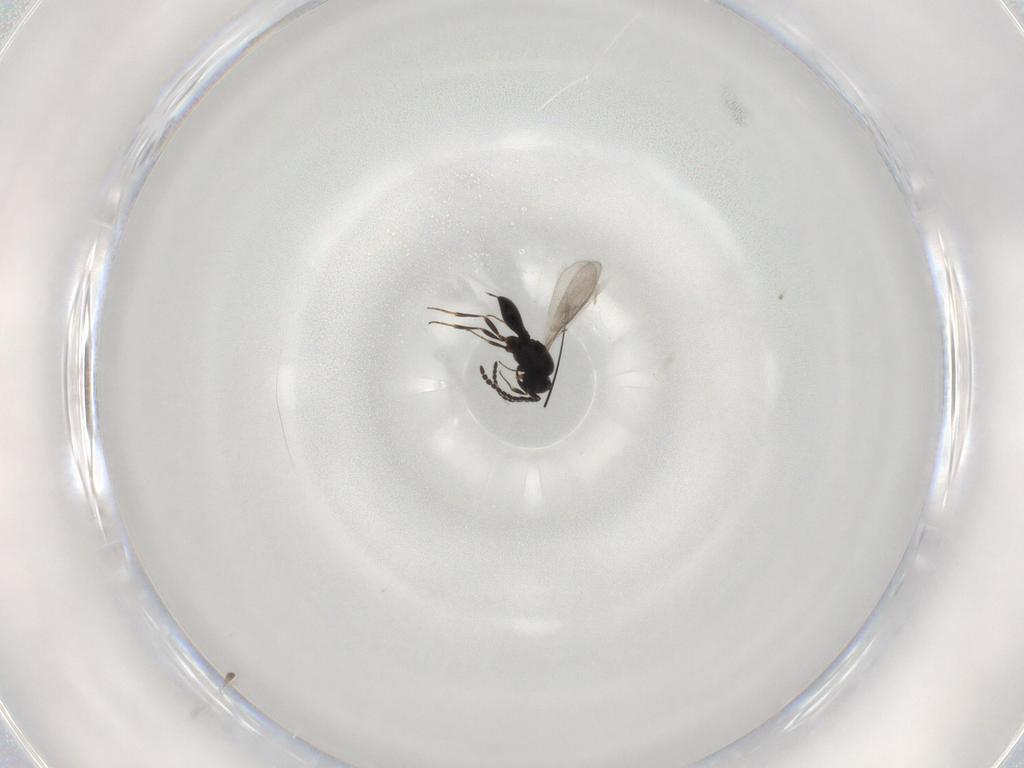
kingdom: Animalia
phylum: Arthropoda
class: Insecta
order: Hymenoptera
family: Scelionidae
